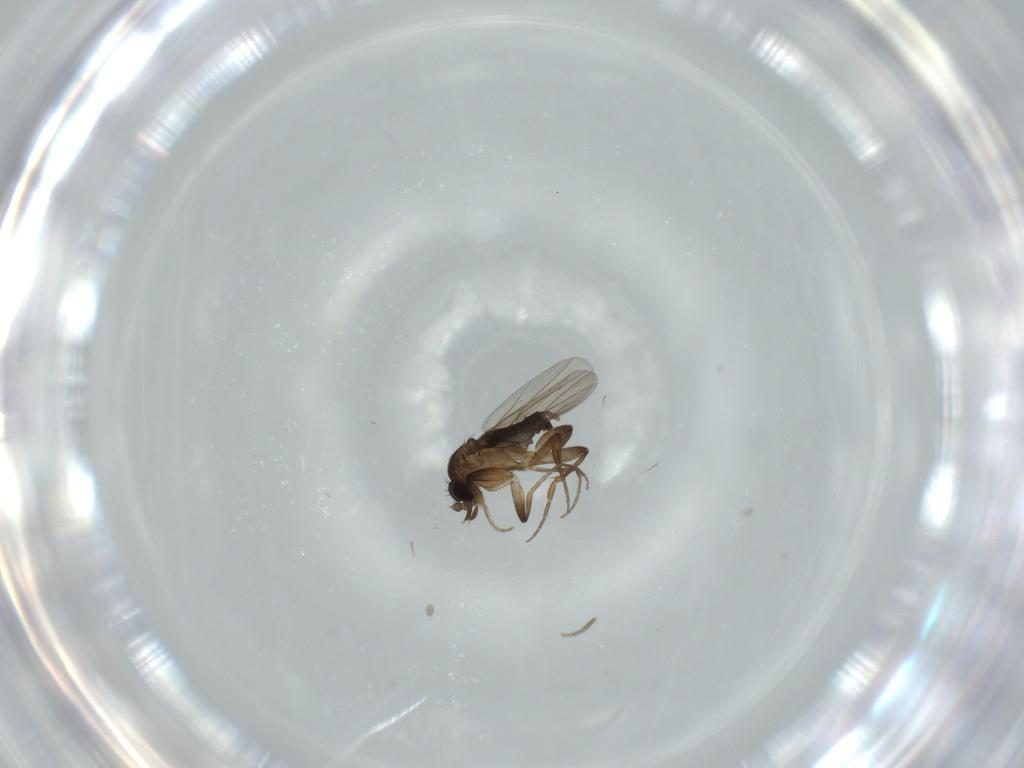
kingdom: Animalia
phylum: Arthropoda
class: Insecta
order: Diptera
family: Phoridae
